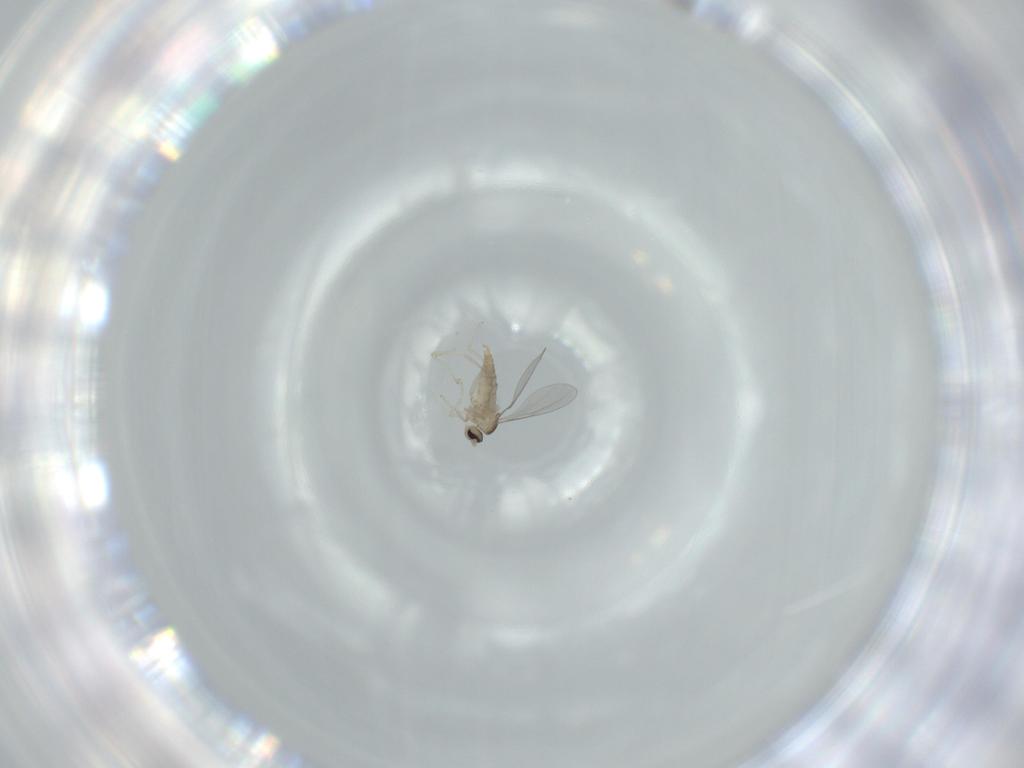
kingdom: Animalia
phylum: Arthropoda
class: Insecta
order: Diptera
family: Cecidomyiidae
